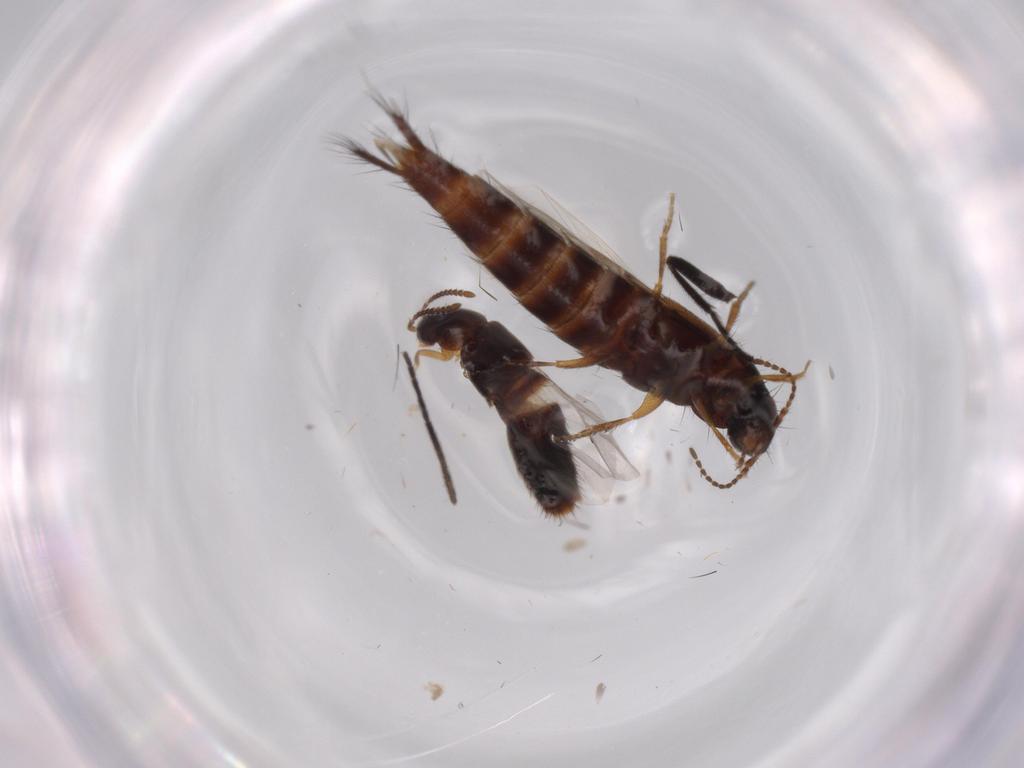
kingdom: Animalia
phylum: Arthropoda
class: Insecta
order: Coleoptera
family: Staphylinidae
